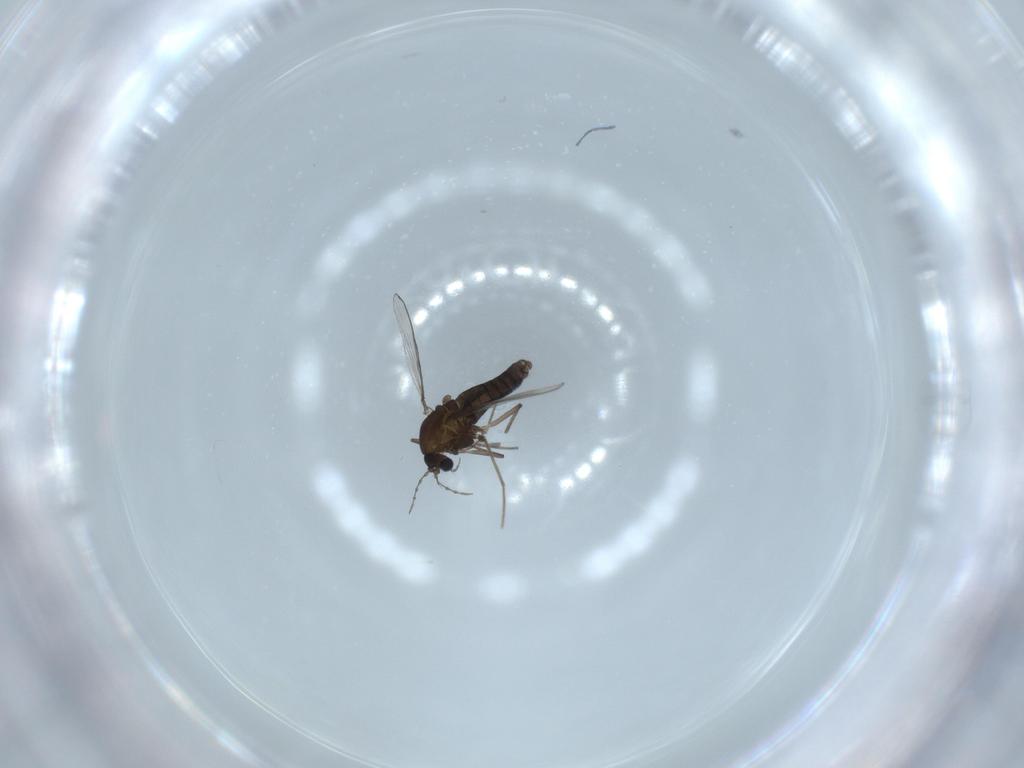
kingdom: Animalia
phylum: Arthropoda
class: Insecta
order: Diptera
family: Chironomidae
